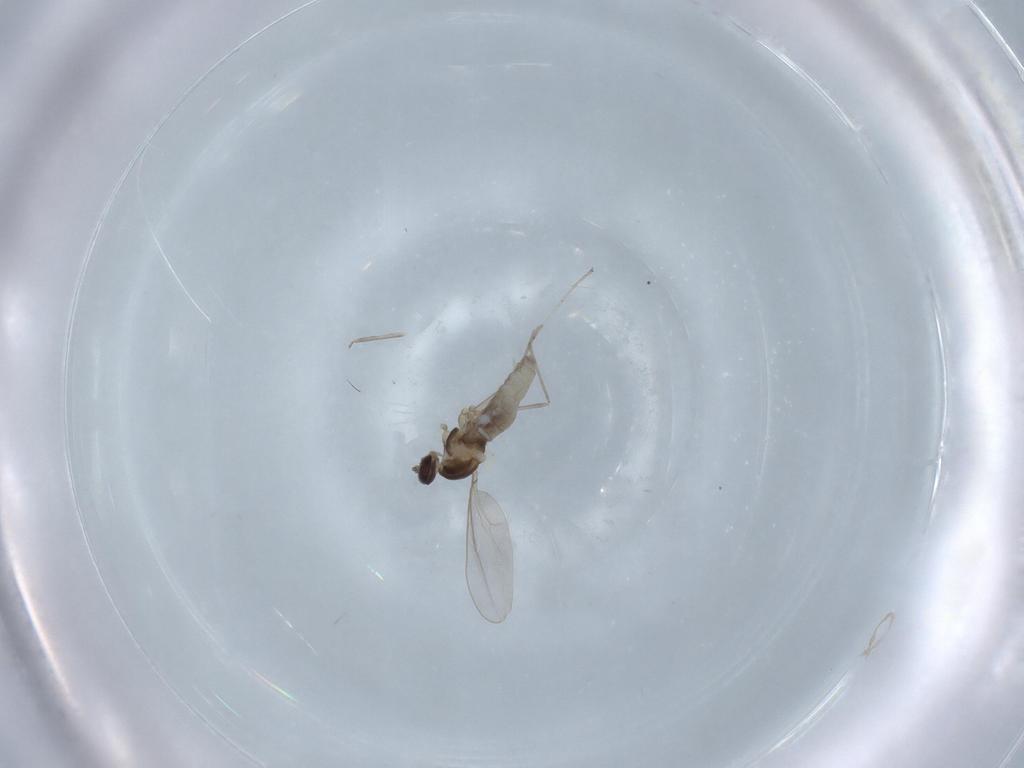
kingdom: Animalia
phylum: Arthropoda
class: Insecta
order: Diptera
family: Cecidomyiidae
